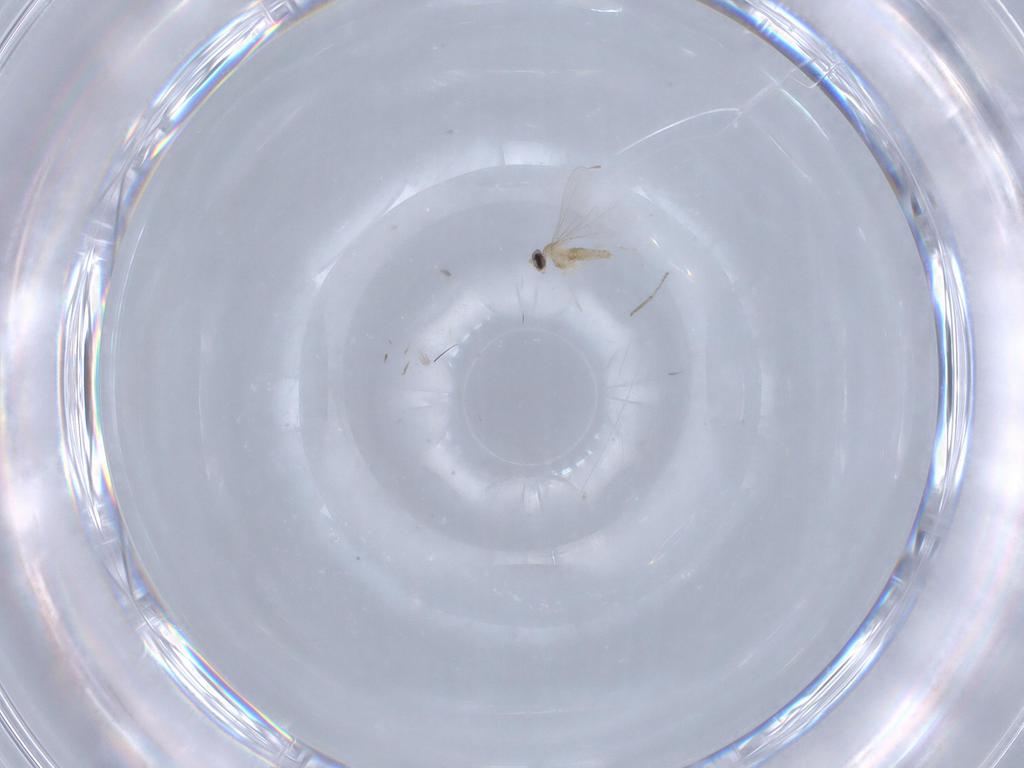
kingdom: Animalia
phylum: Arthropoda
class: Insecta
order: Diptera
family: Cecidomyiidae
